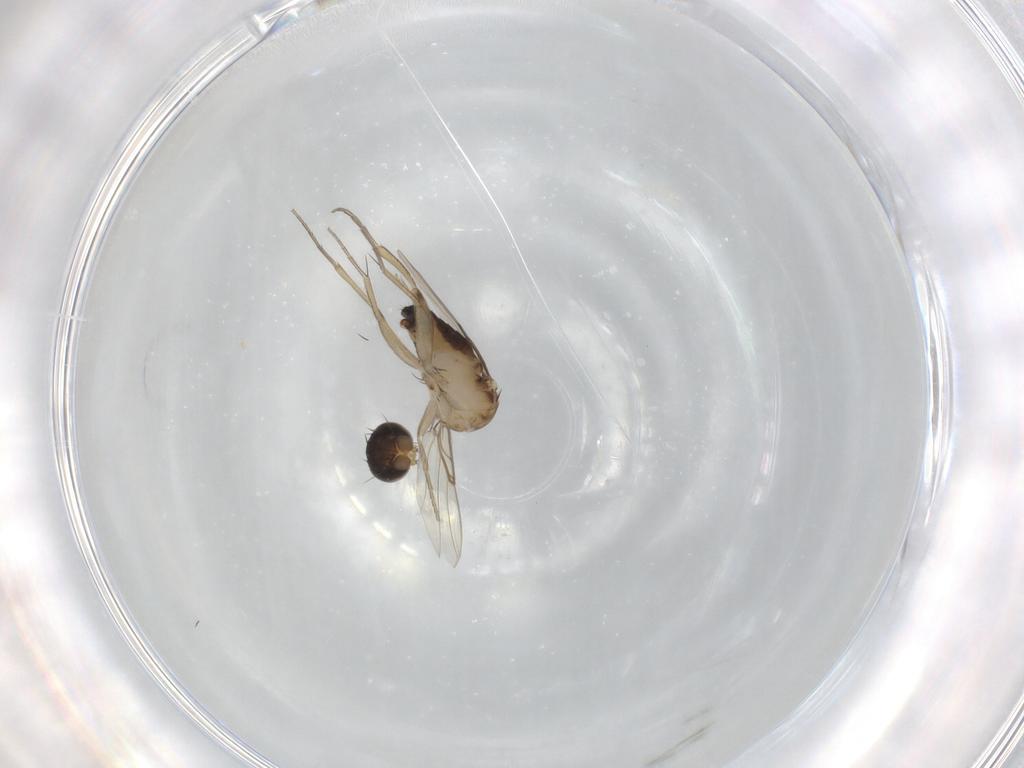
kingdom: Animalia
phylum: Arthropoda
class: Insecta
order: Diptera
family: Phoridae
